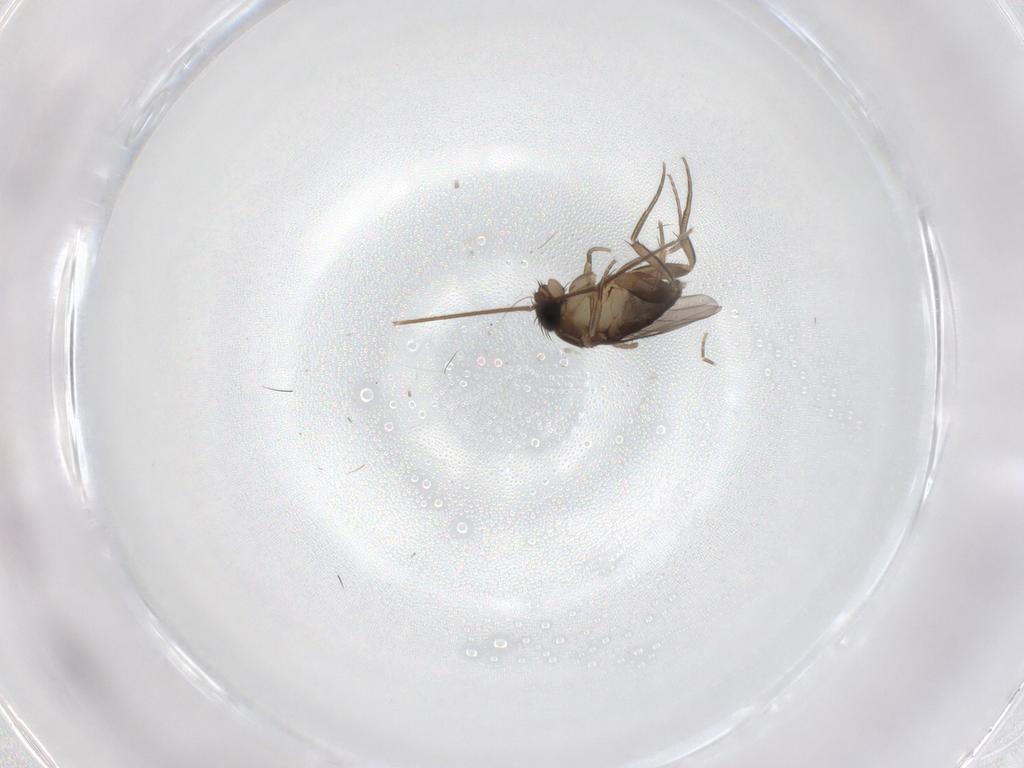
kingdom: Animalia
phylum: Arthropoda
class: Insecta
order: Diptera
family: Phoridae
